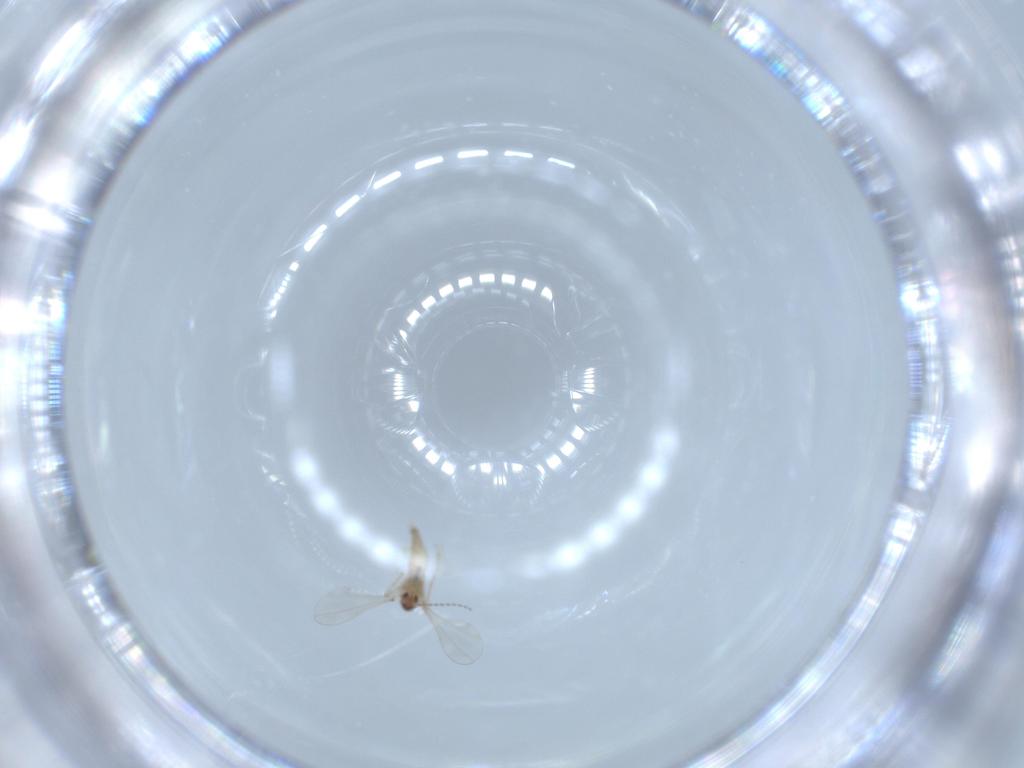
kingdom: Animalia
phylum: Arthropoda
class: Insecta
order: Diptera
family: Cecidomyiidae
